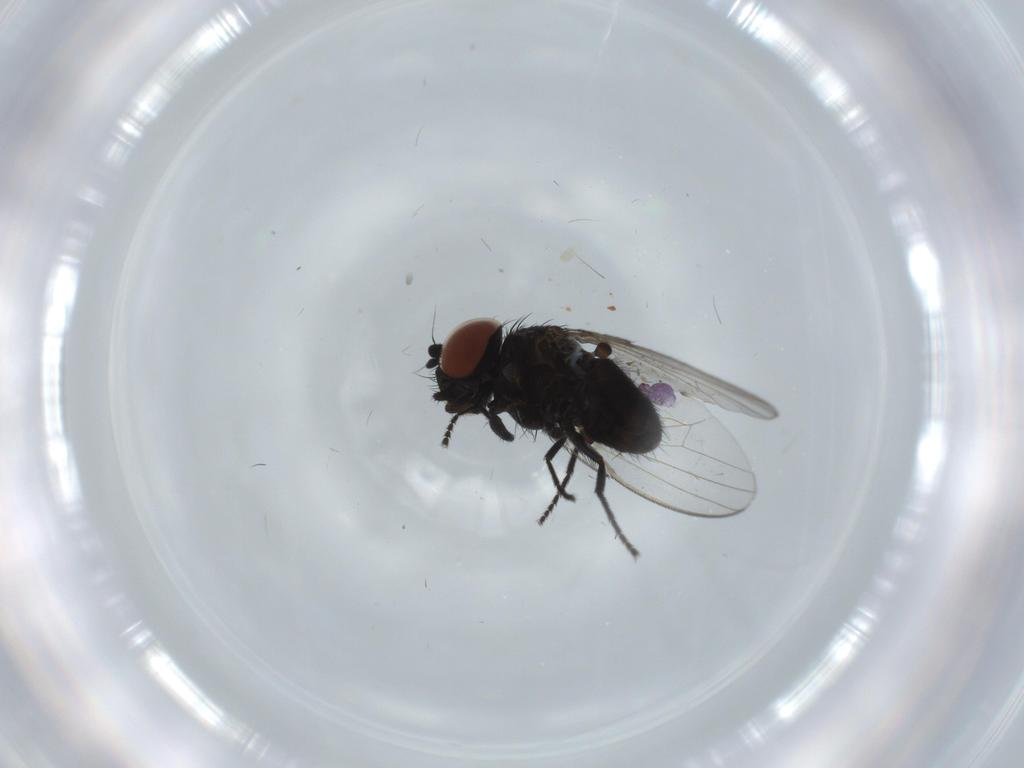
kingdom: Animalia
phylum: Arthropoda
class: Insecta
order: Diptera
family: Milichiidae
